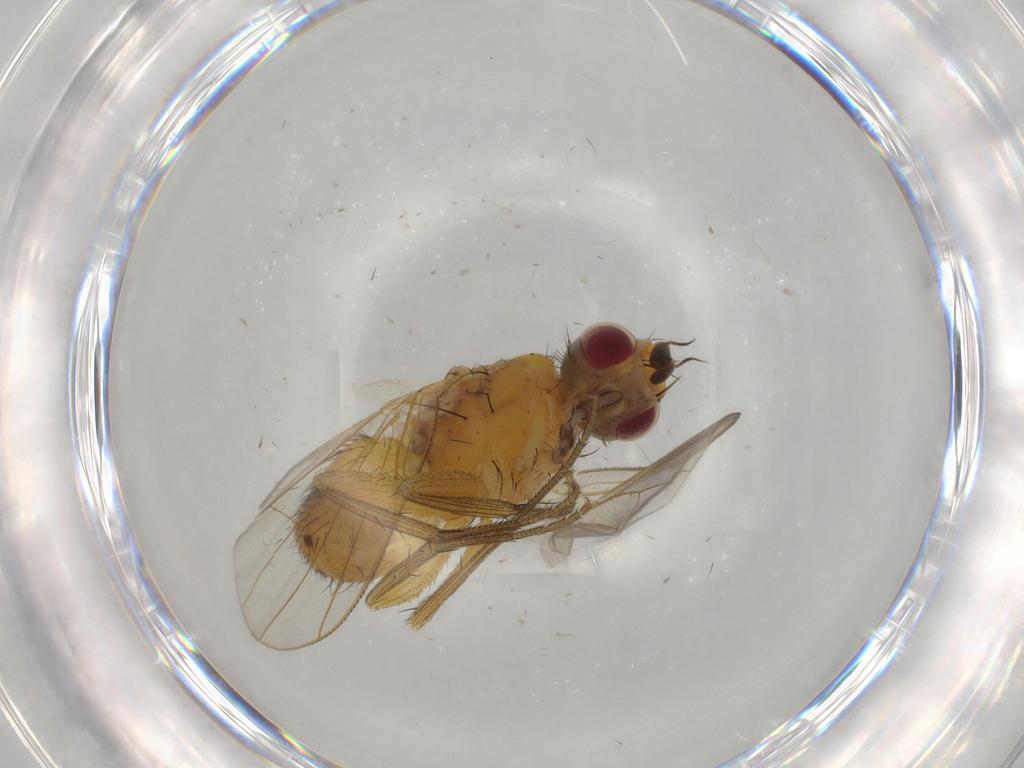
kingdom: Animalia
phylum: Arthropoda
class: Insecta
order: Diptera
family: Muscidae
